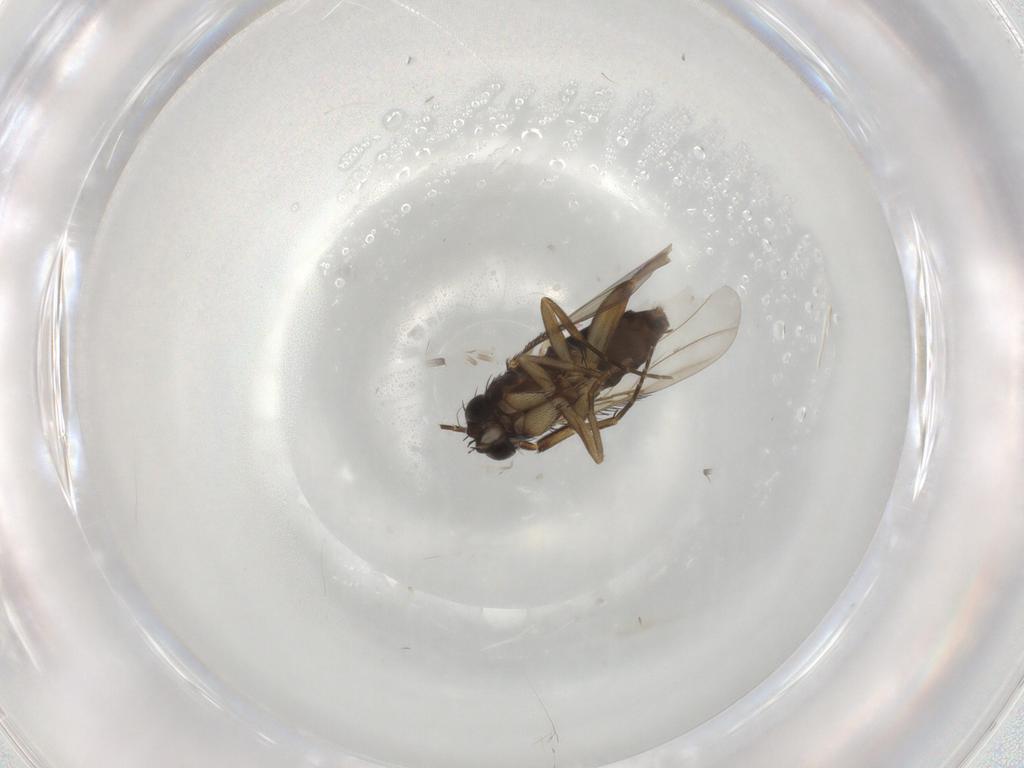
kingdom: Animalia
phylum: Arthropoda
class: Insecta
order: Diptera
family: Phoridae
